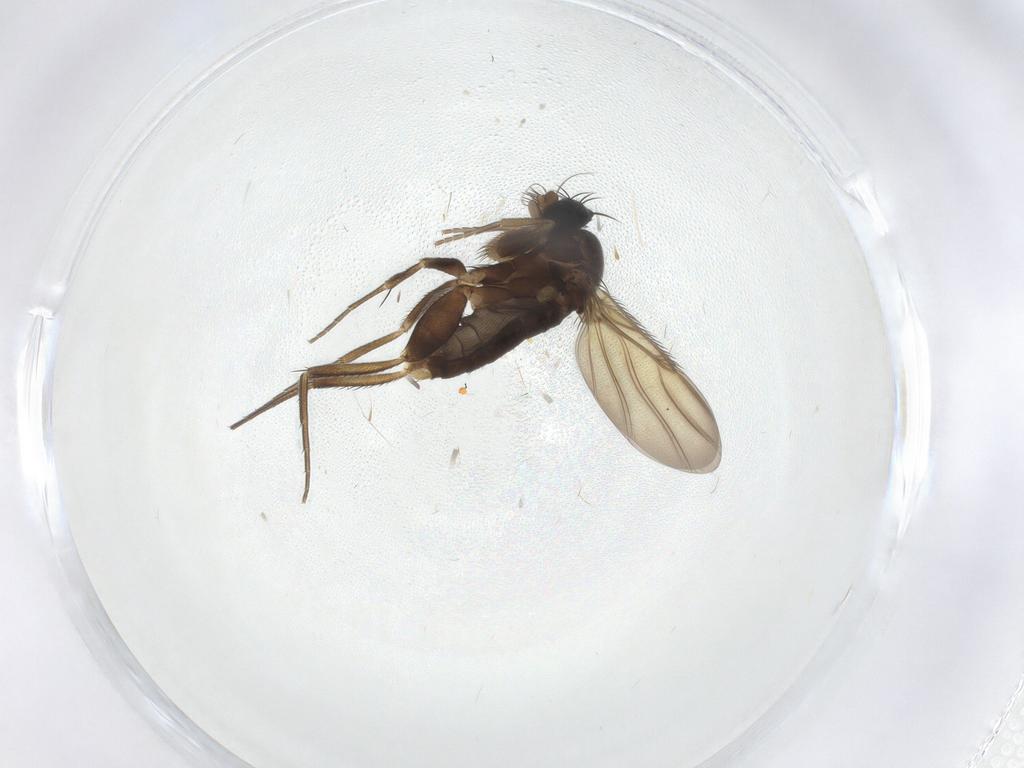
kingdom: Animalia
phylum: Arthropoda
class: Insecta
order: Diptera
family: Phoridae
